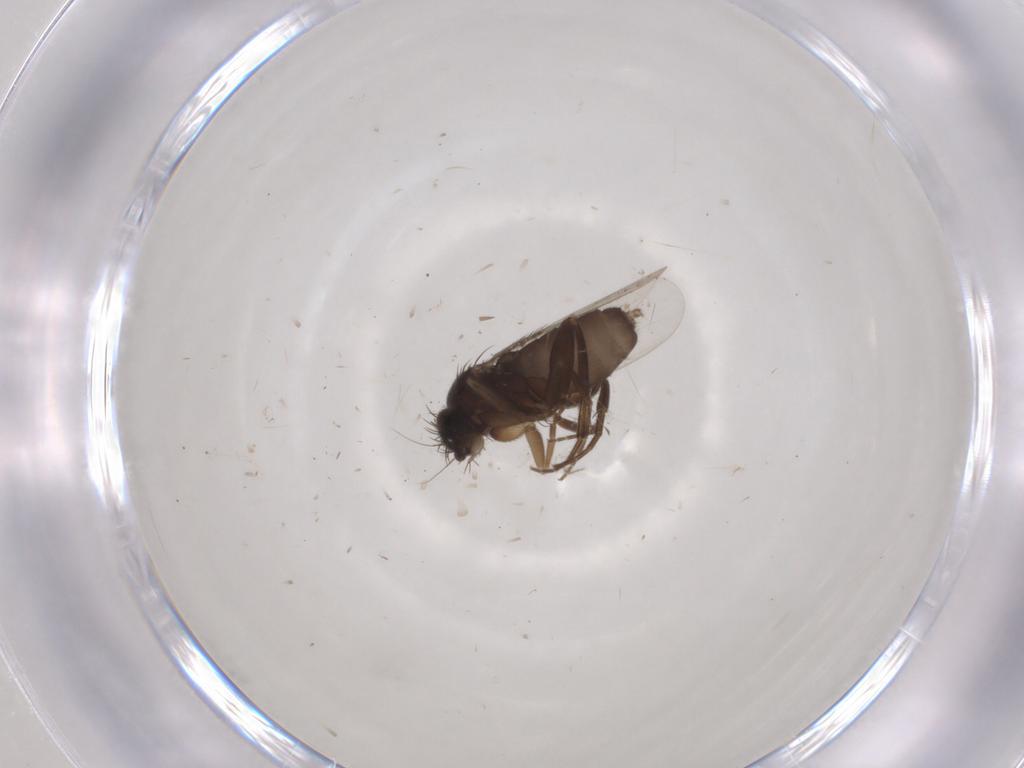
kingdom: Animalia
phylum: Arthropoda
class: Insecta
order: Diptera
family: Phoridae
